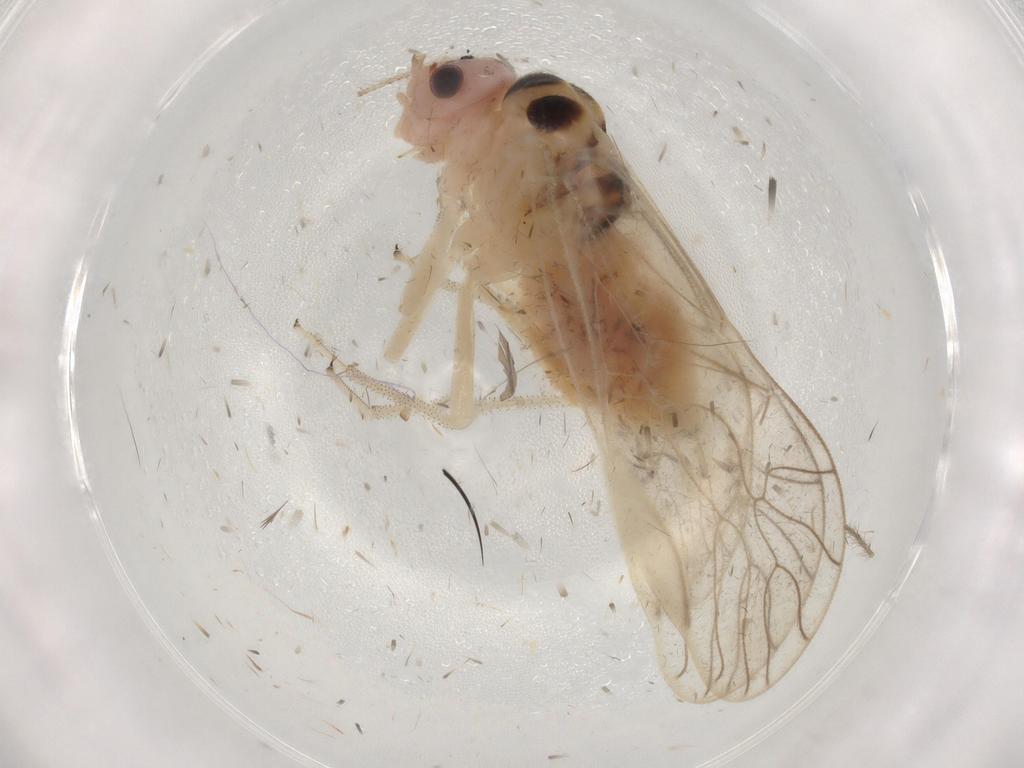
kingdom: Animalia
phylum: Arthropoda
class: Insecta
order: Psocodea
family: Amphipsocidae
